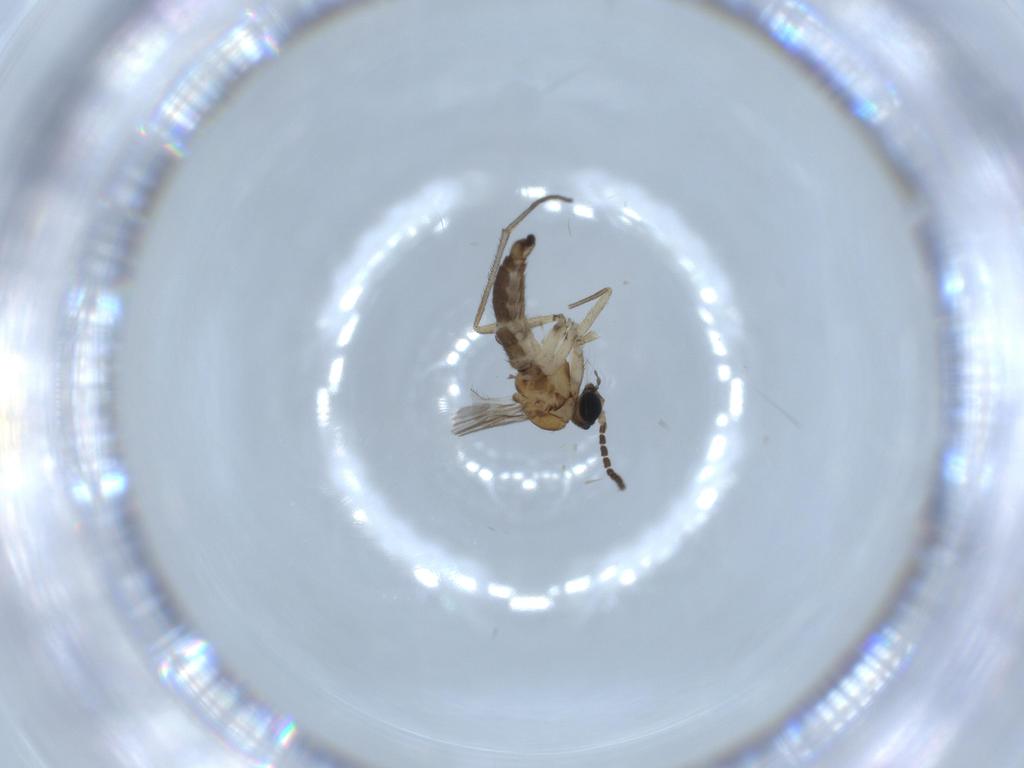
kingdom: Animalia
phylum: Arthropoda
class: Insecta
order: Diptera
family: Sciaridae
